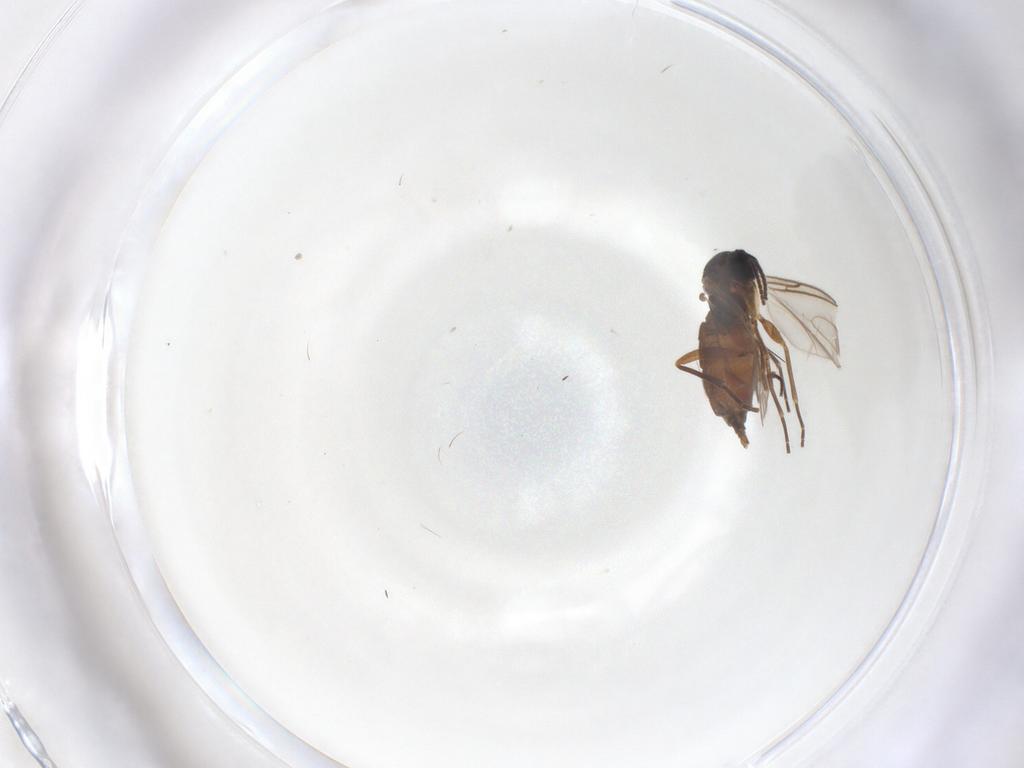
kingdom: Animalia
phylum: Arthropoda
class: Insecta
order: Diptera
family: Sciaridae
